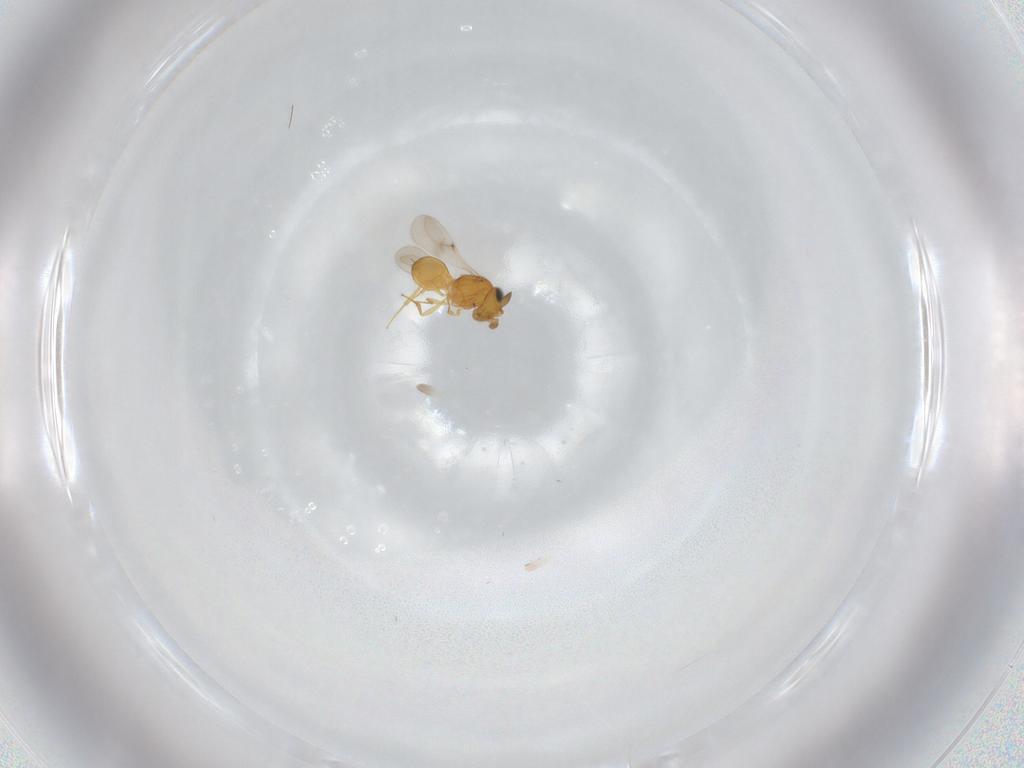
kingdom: Animalia
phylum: Arthropoda
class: Insecta
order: Hymenoptera
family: Scelionidae
